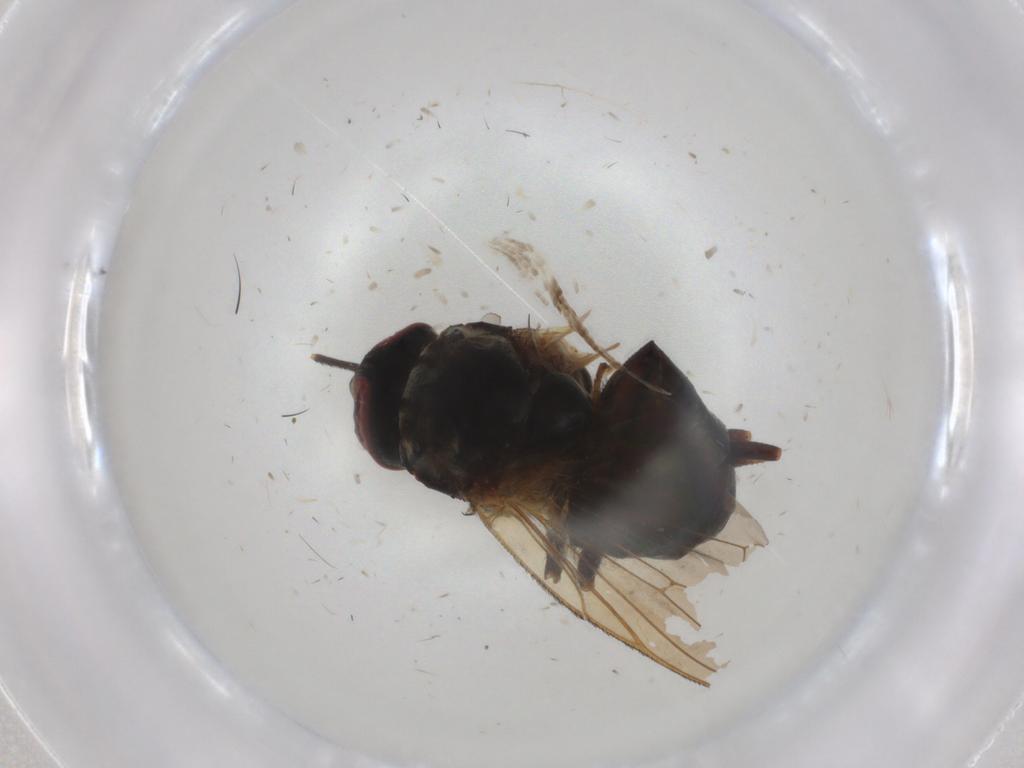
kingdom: Animalia
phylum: Arthropoda
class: Insecta
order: Diptera
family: Muscidae
